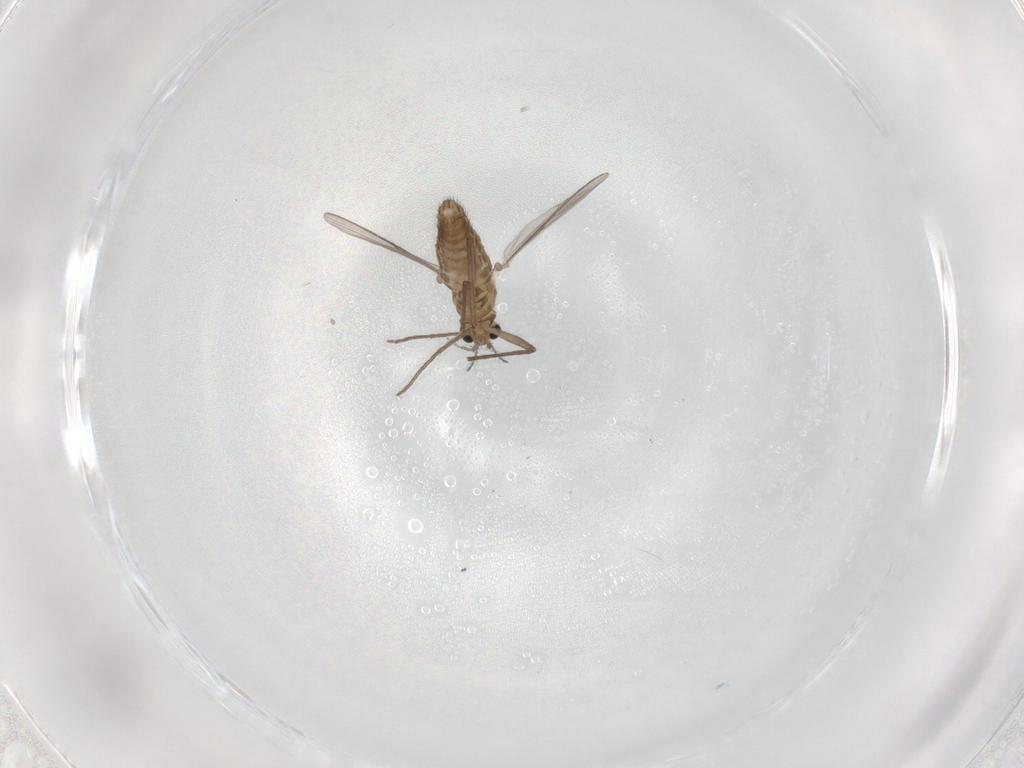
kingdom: Animalia
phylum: Arthropoda
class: Insecta
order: Diptera
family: Chironomidae
